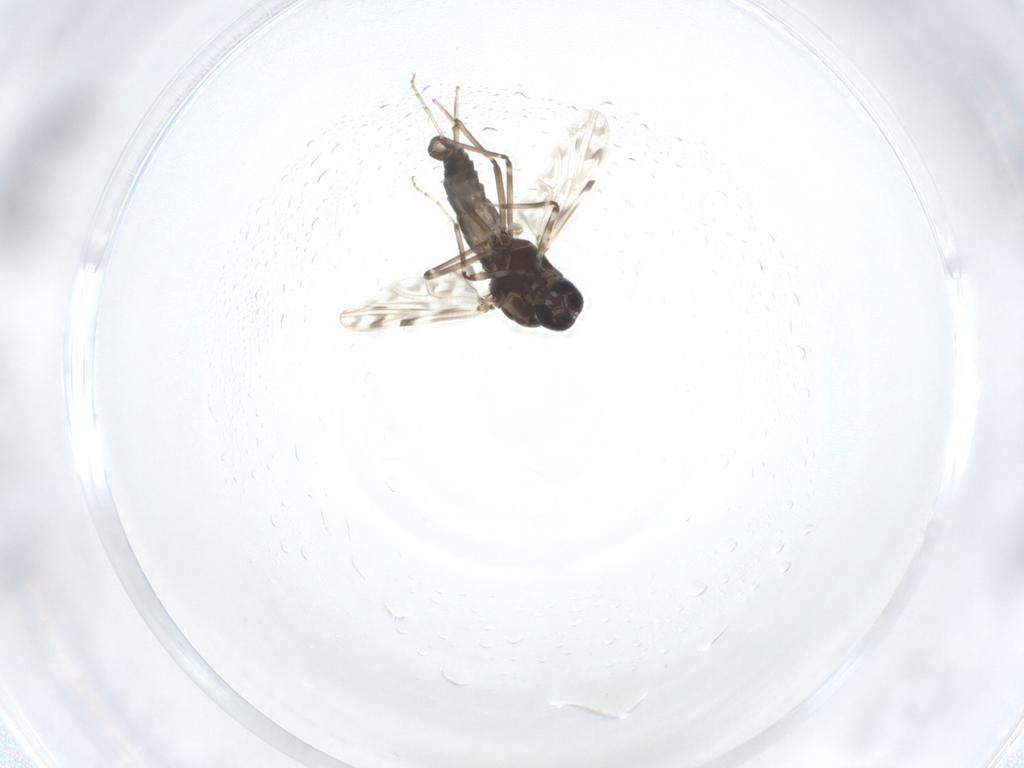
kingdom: Animalia
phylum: Arthropoda
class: Insecta
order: Diptera
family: Ceratopogonidae
